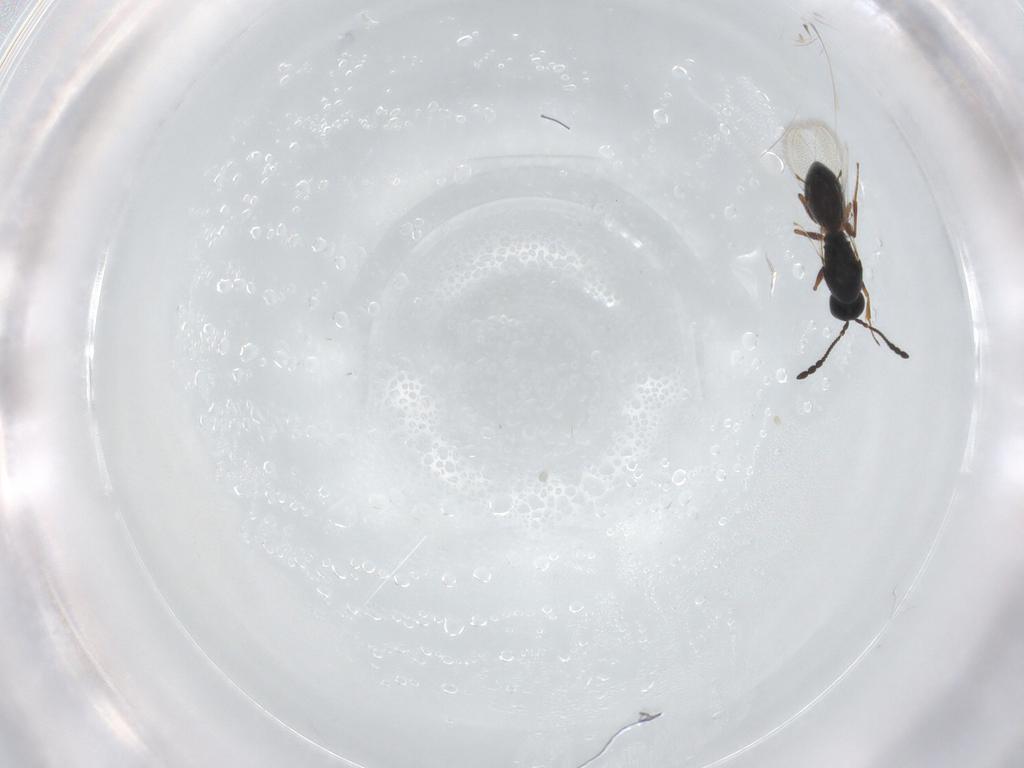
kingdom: Animalia
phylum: Arthropoda
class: Insecta
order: Hymenoptera
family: Figitidae
